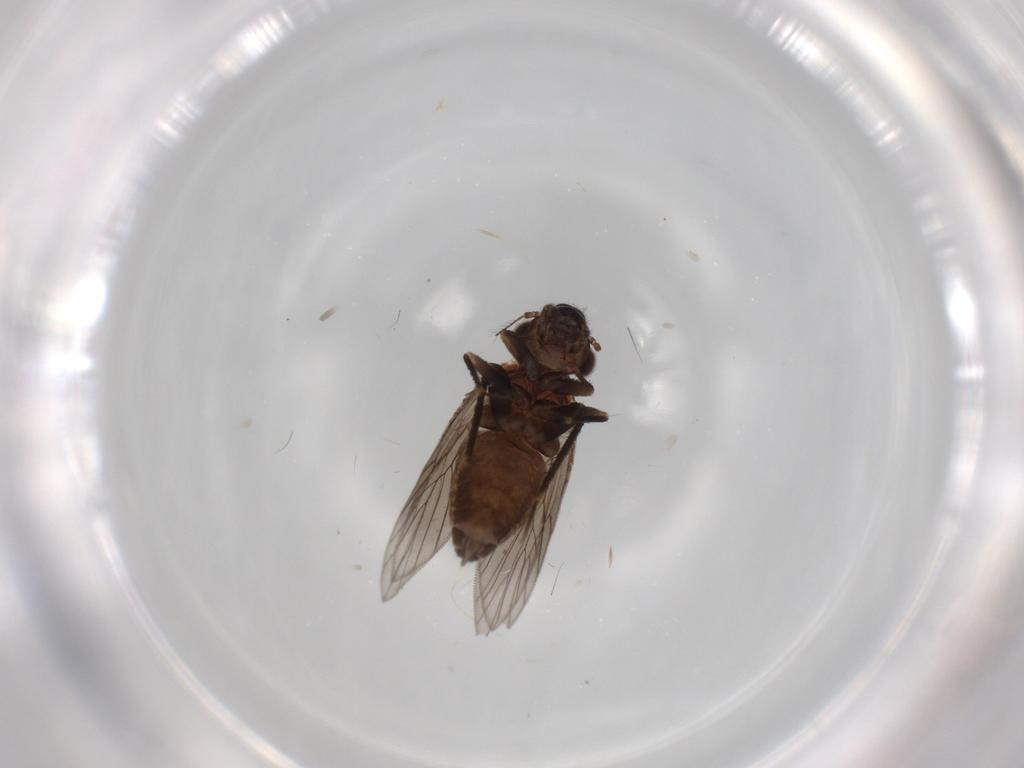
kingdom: Animalia
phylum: Arthropoda
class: Insecta
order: Psocodea
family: Lepidopsocidae
